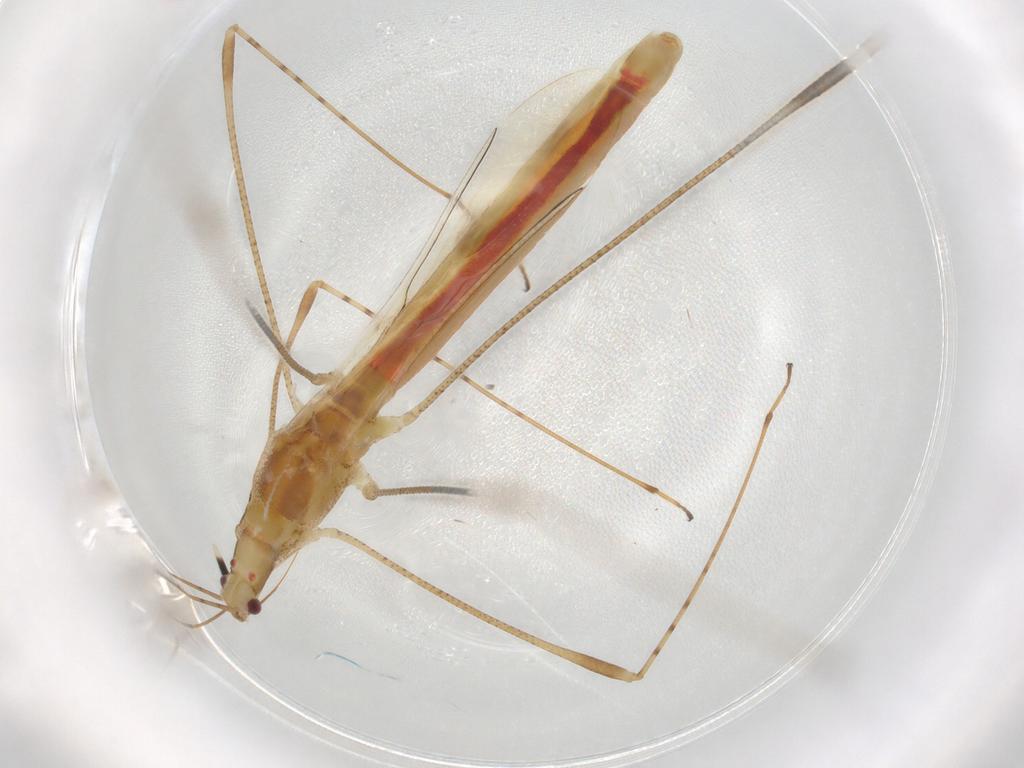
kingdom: Animalia
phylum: Arthropoda
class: Insecta
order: Hemiptera
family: Berytidae
